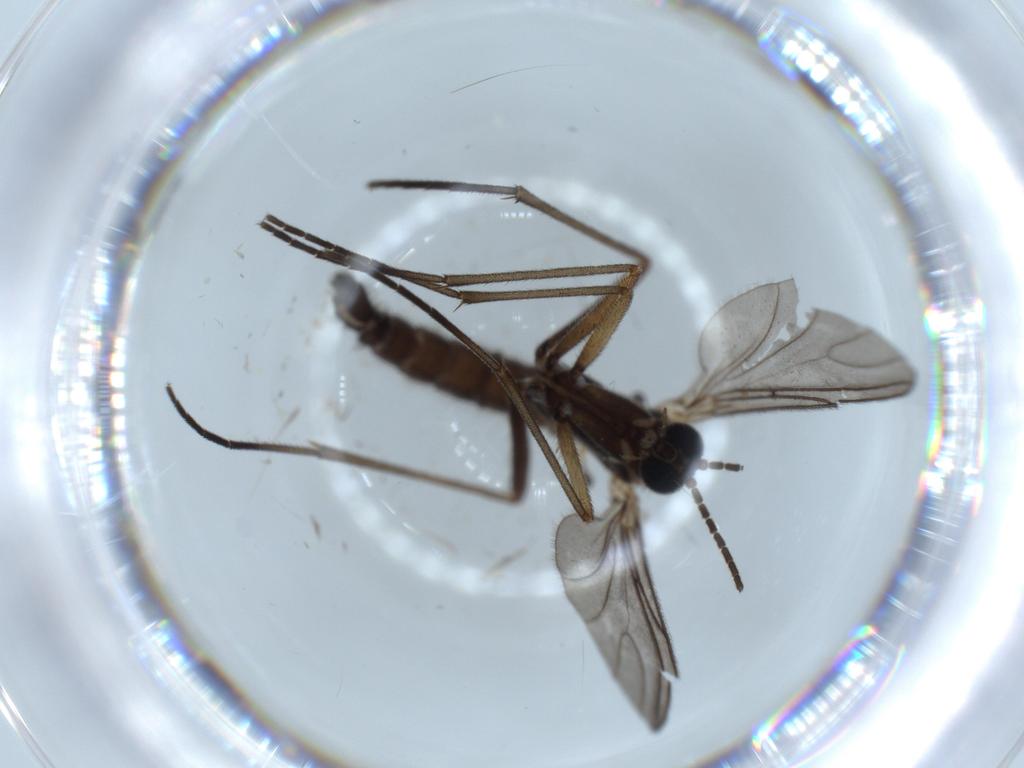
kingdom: Animalia
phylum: Arthropoda
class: Insecta
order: Diptera
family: Sciaridae
